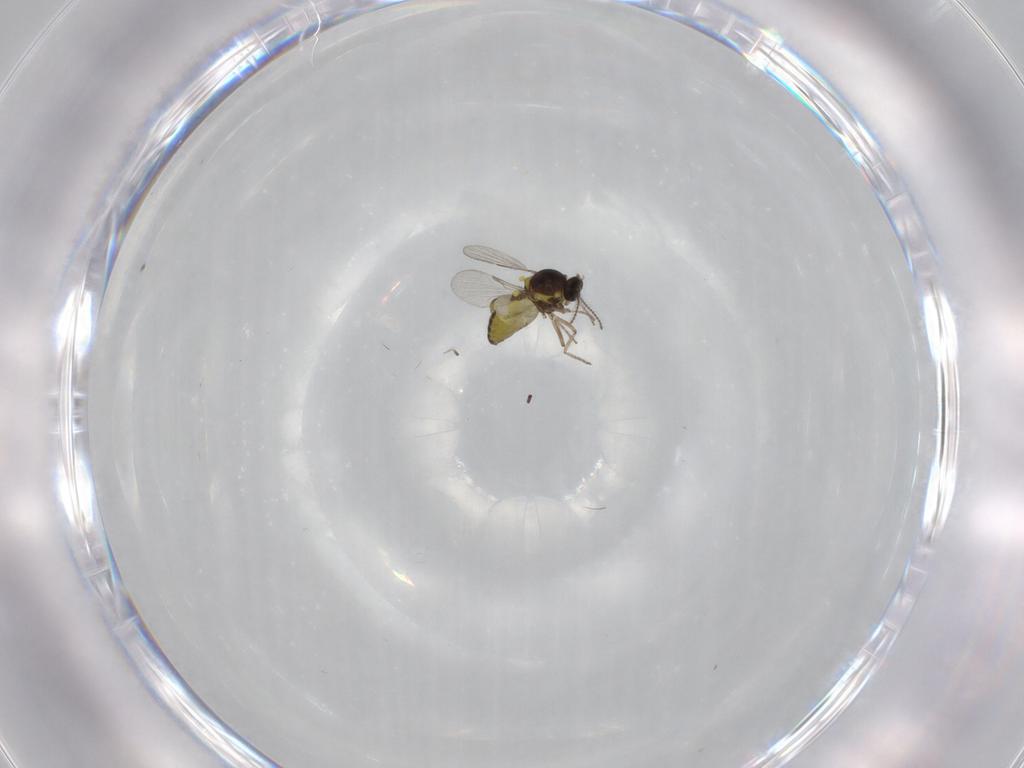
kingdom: Animalia
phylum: Arthropoda
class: Insecta
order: Diptera
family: Ceratopogonidae
